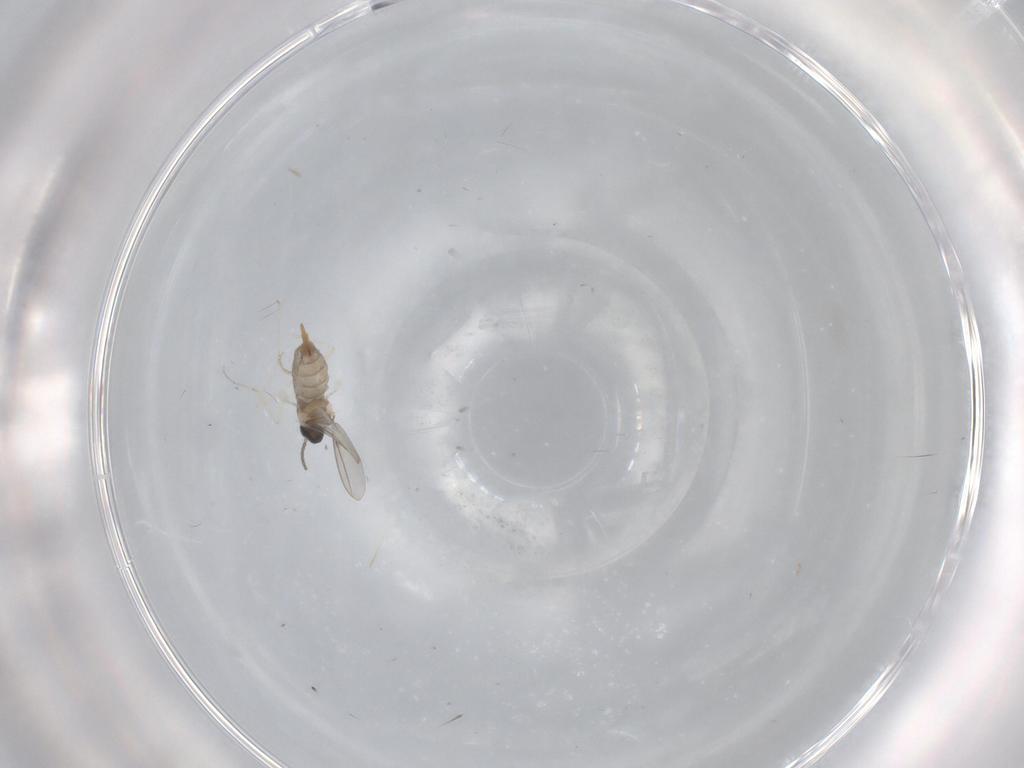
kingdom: Animalia
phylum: Arthropoda
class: Insecta
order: Diptera
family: Cecidomyiidae
